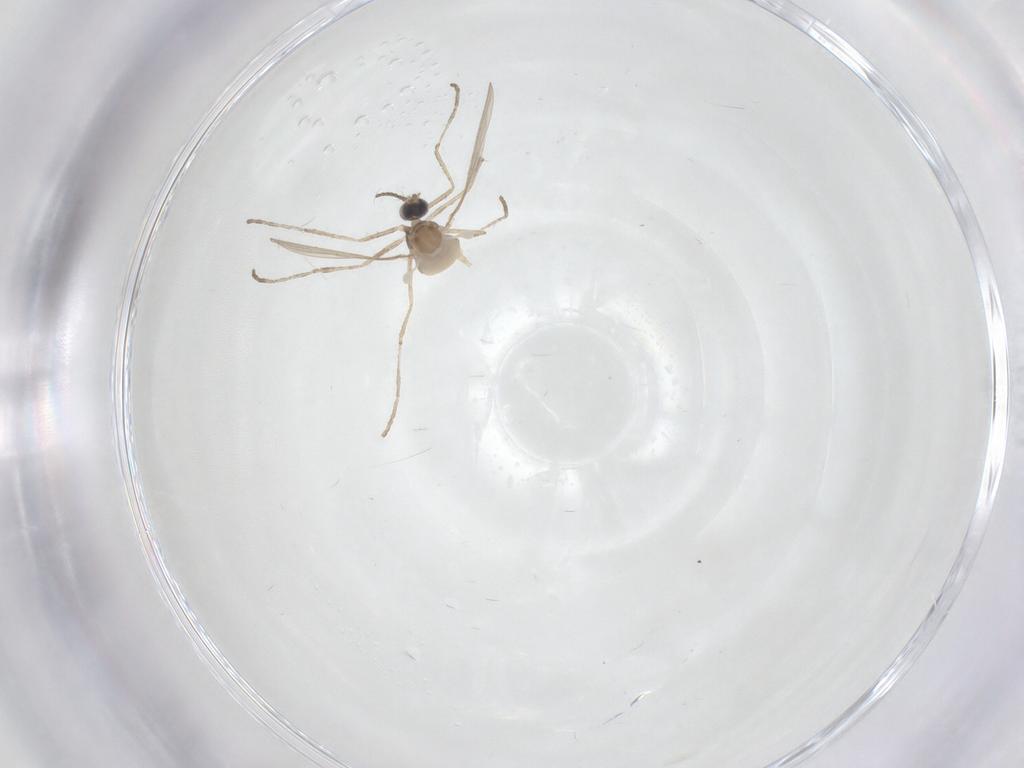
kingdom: Animalia
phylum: Arthropoda
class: Insecta
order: Diptera
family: Cecidomyiidae
